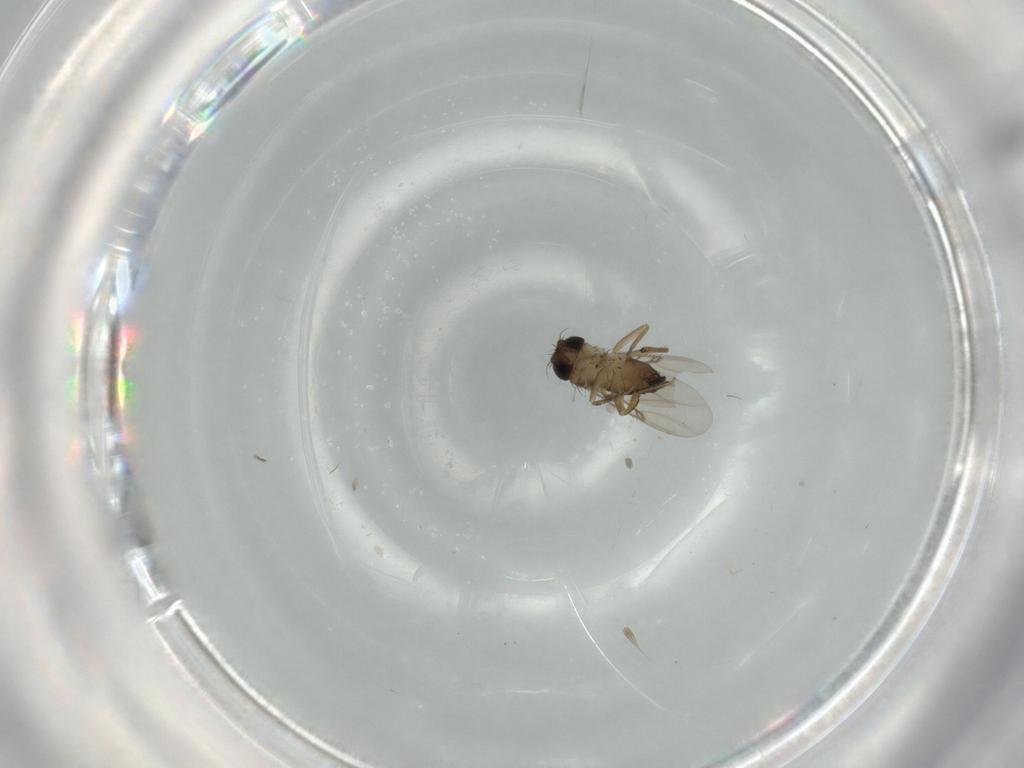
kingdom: Animalia
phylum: Arthropoda
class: Insecta
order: Diptera
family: Phoridae
